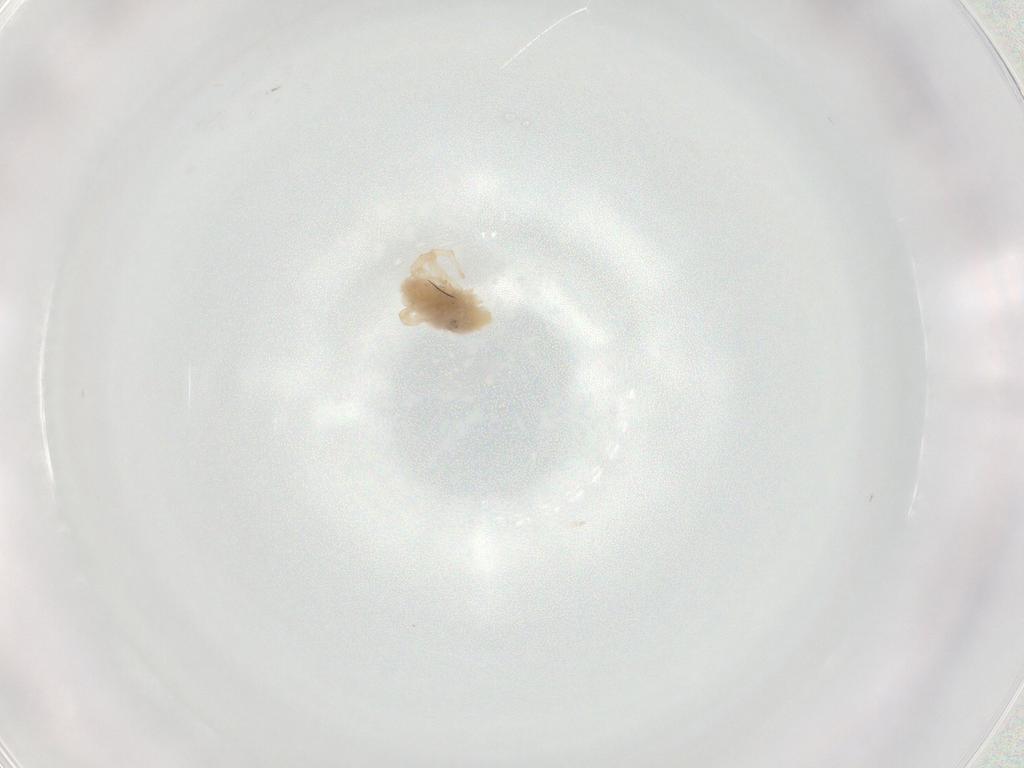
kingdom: Animalia
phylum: Arthropoda
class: Arachnida
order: Trombidiformes
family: Bdellidae
